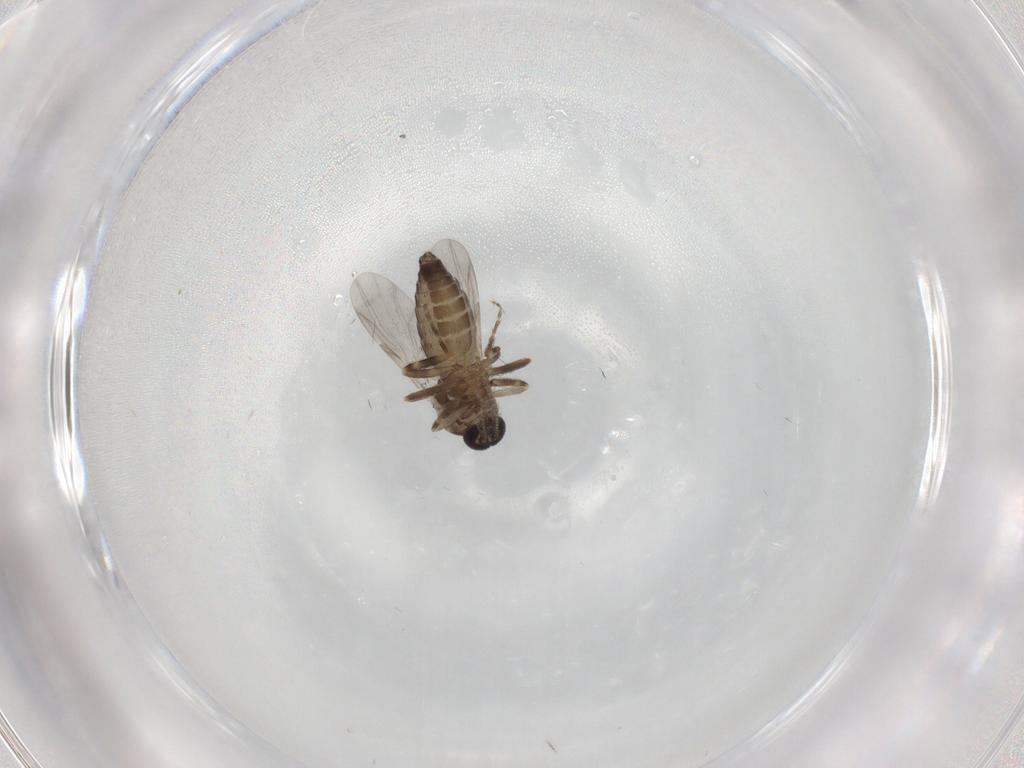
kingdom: Animalia
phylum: Arthropoda
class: Insecta
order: Diptera
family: Ceratopogonidae
